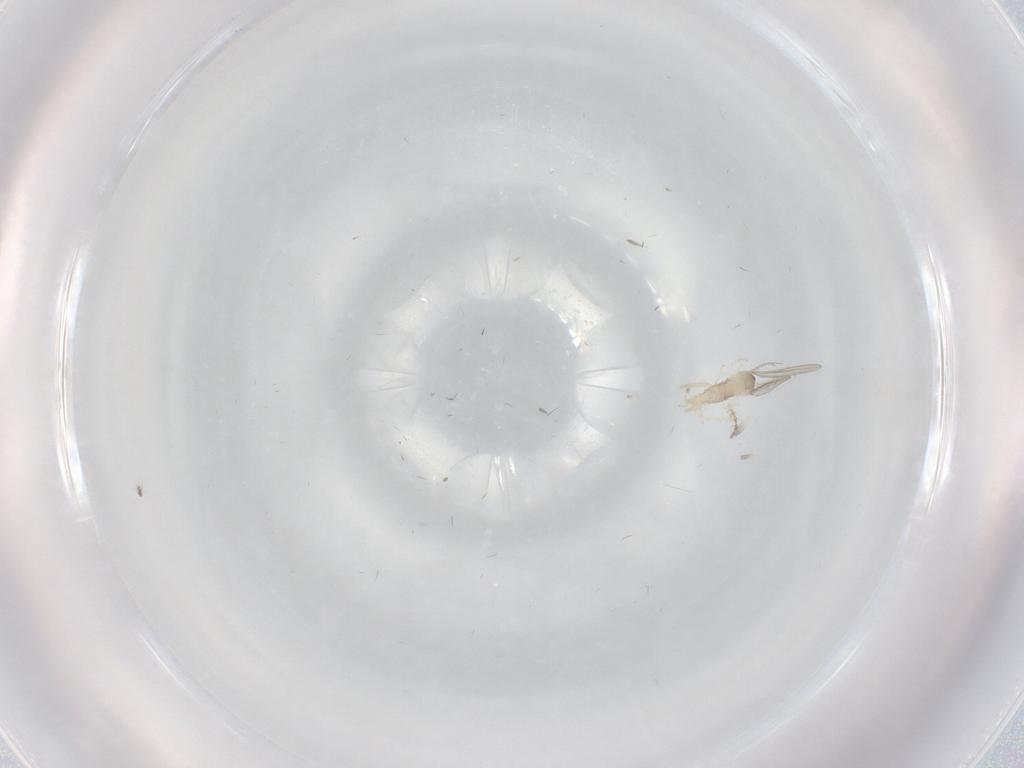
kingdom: Animalia
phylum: Arthropoda
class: Insecta
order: Diptera
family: Cecidomyiidae
